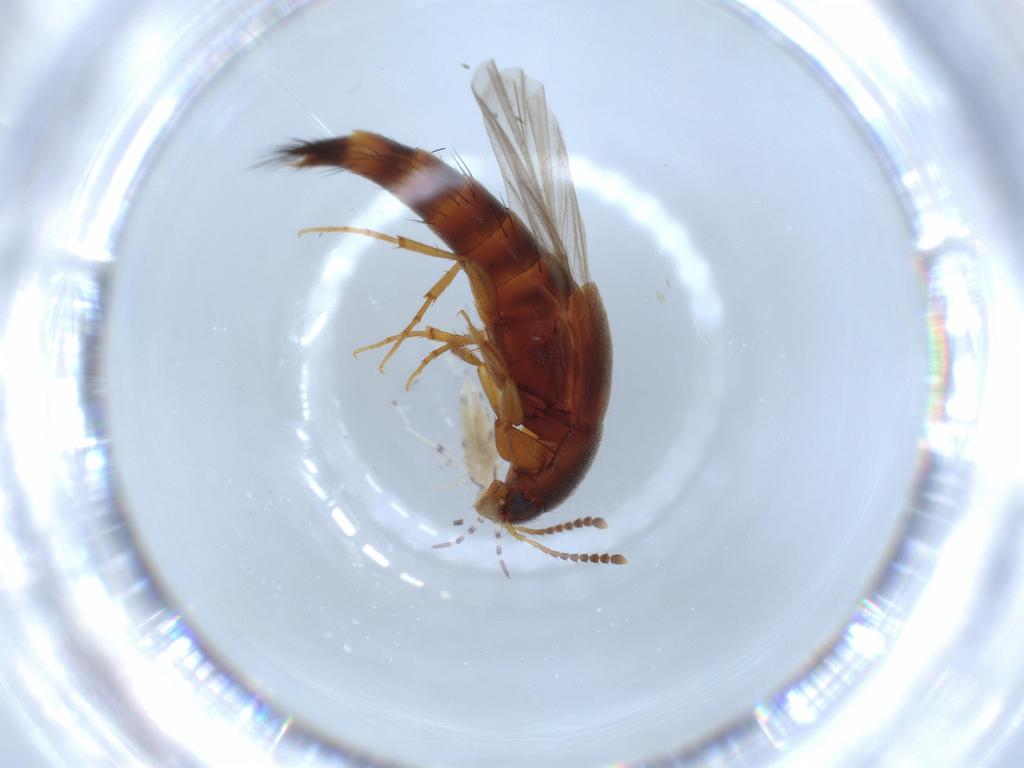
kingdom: Animalia
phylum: Arthropoda
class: Insecta
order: Coleoptera
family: Staphylinidae
